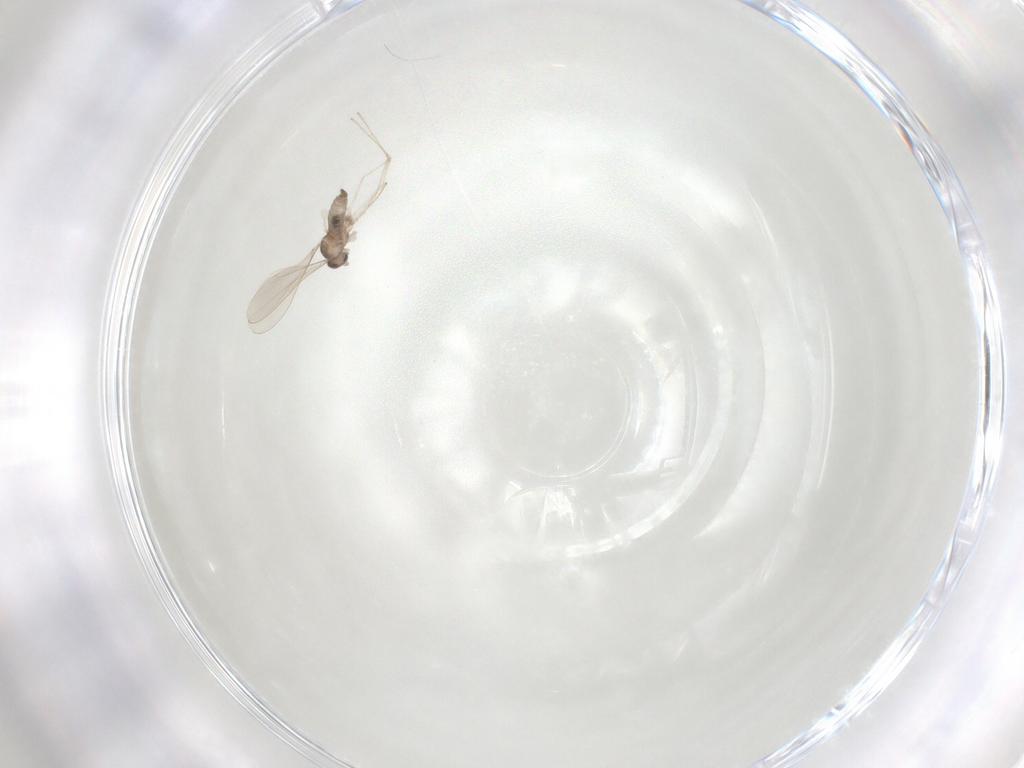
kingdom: Animalia
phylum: Arthropoda
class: Insecta
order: Diptera
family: Cecidomyiidae
